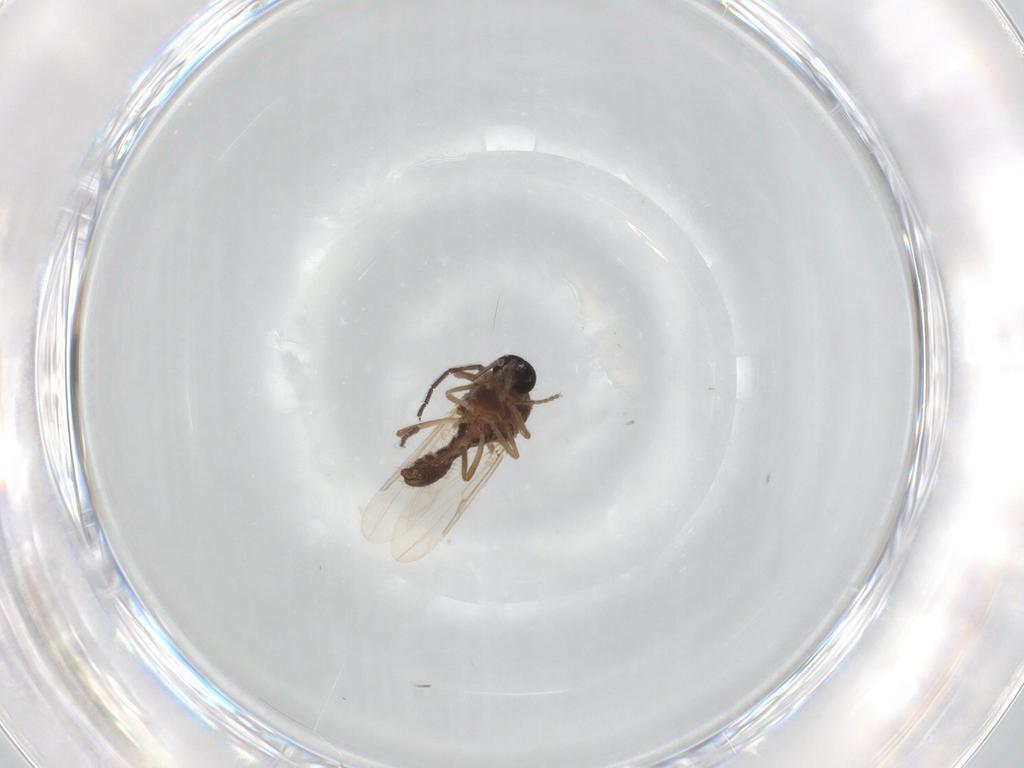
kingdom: Animalia
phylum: Arthropoda
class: Insecta
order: Diptera
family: Ceratopogonidae
